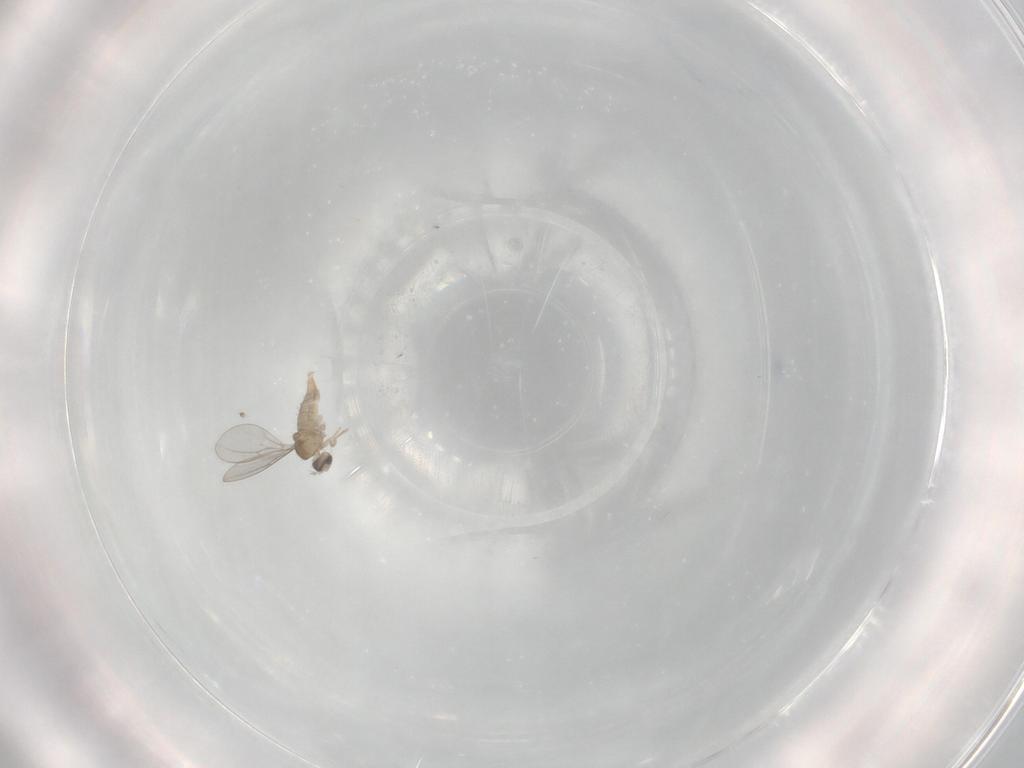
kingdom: Animalia
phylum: Arthropoda
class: Insecta
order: Diptera
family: Cecidomyiidae
